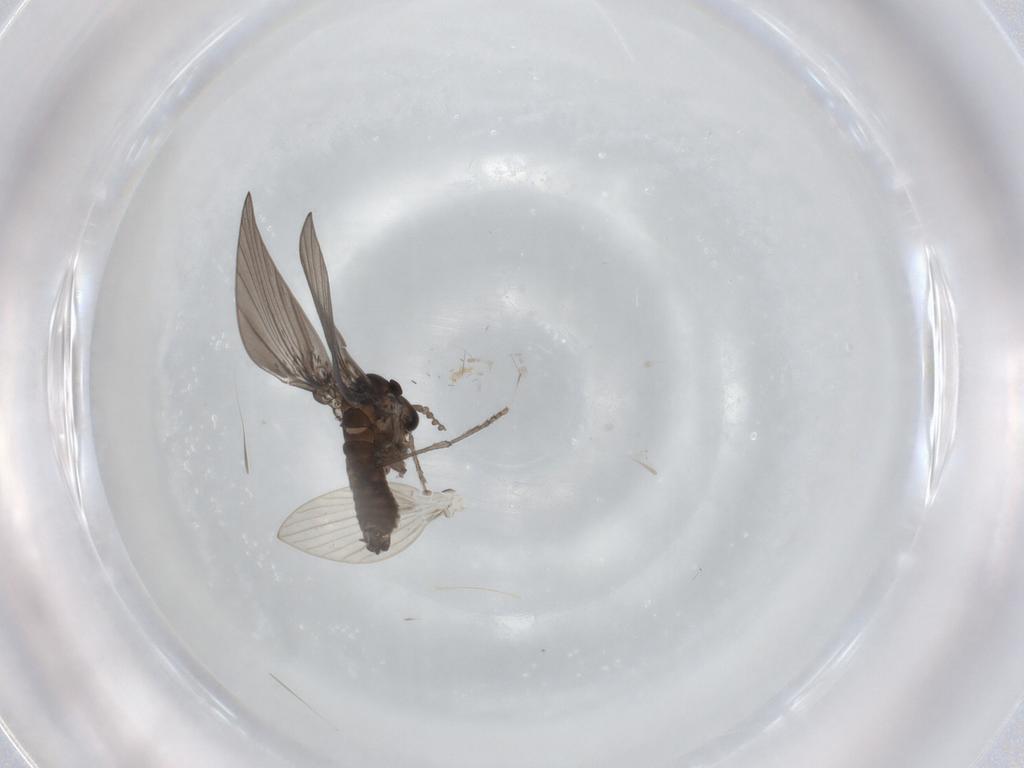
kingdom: Animalia
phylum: Arthropoda
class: Insecta
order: Diptera
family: Psychodidae
